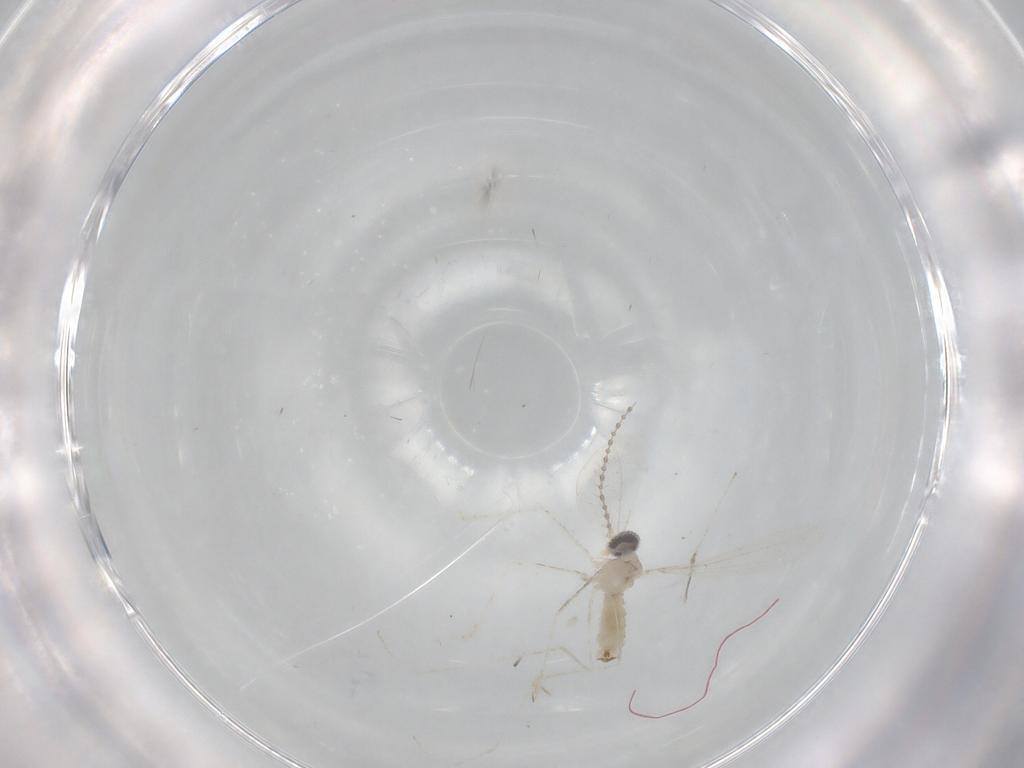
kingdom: Animalia
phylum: Arthropoda
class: Insecta
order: Diptera
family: Cecidomyiidae
